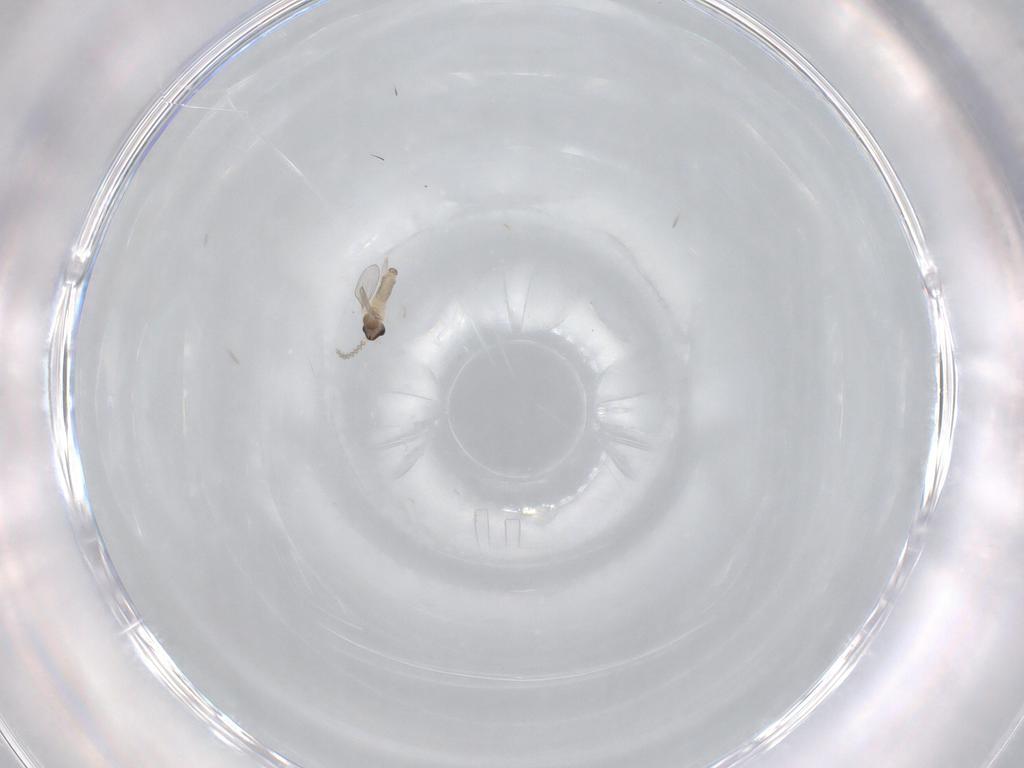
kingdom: Animalia
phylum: Arthropoda
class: Insecta
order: Diptera
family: Cecidomyiidae
